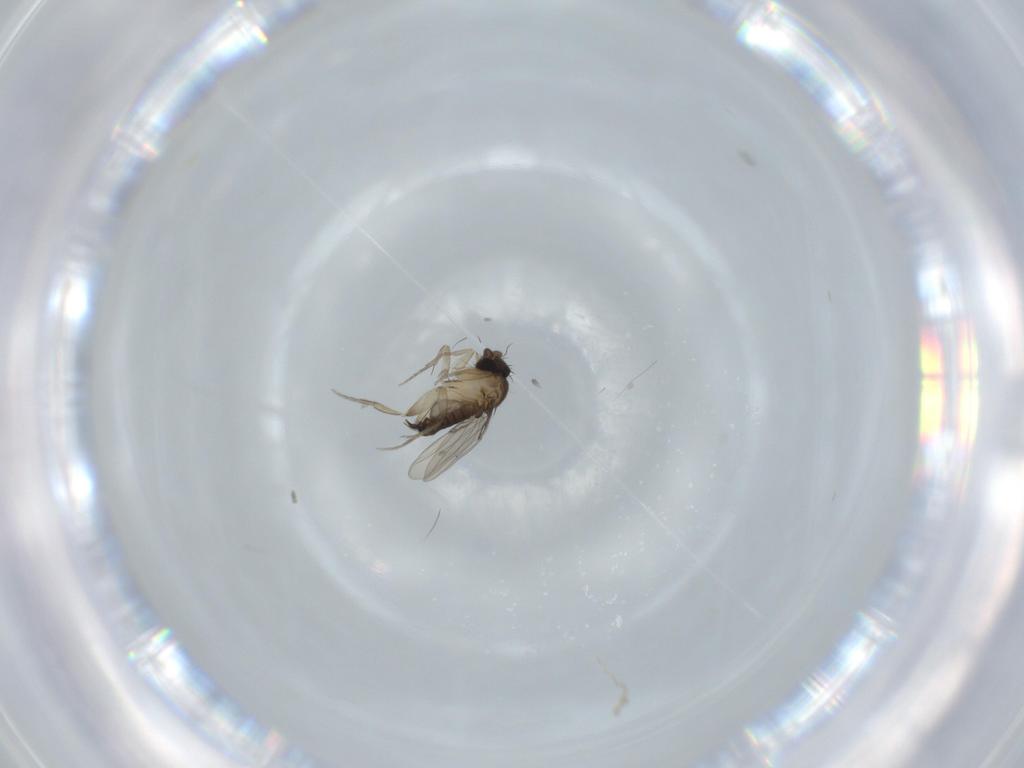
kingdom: Animalia
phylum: Arthropoda
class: Insecta
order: Diptera
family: Phoridae
